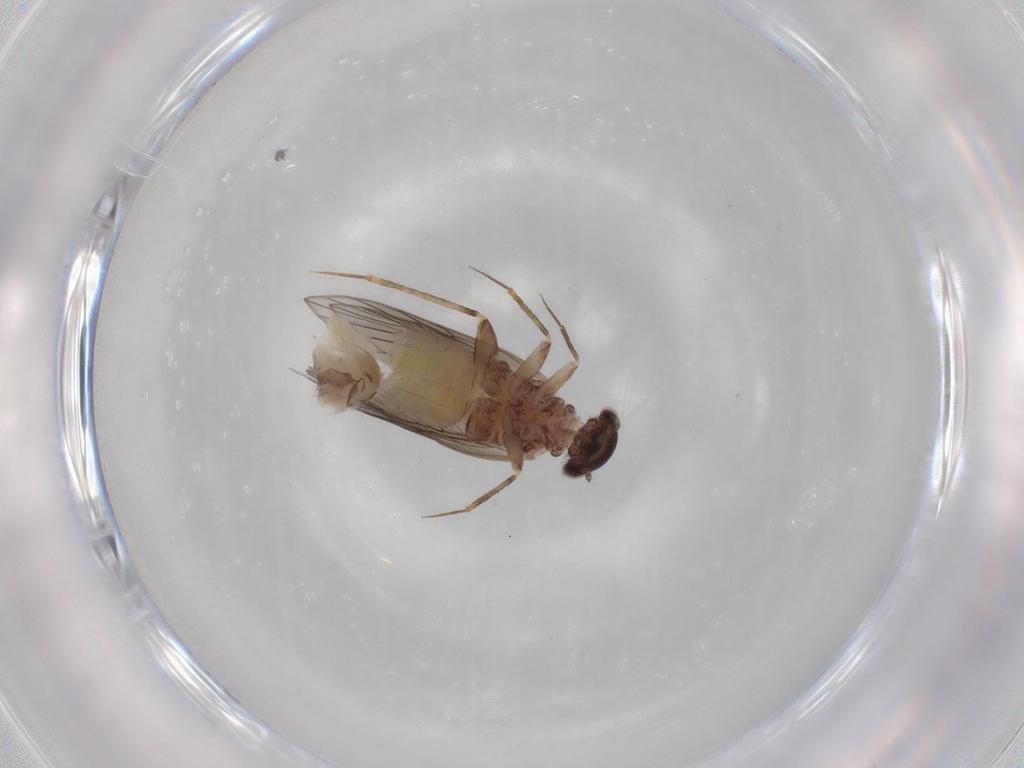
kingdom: Animalia
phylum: Arthropoda
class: Insecta
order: Psocodea
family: Lepidopsocidae
